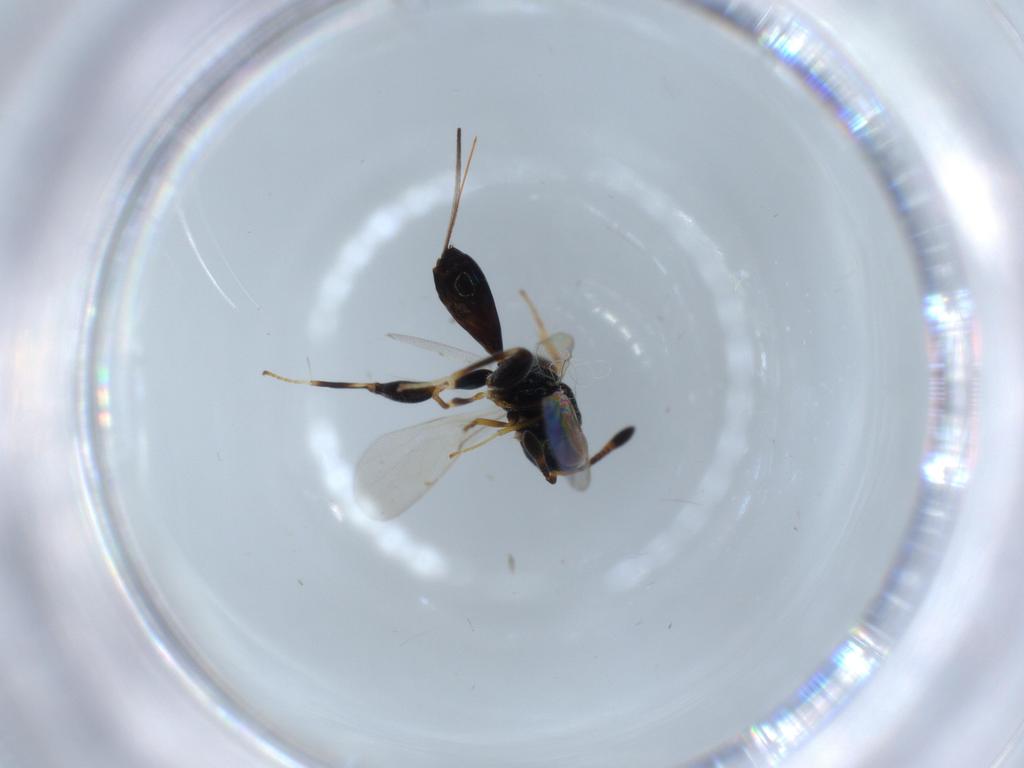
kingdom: Animalia
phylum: Arthropoda
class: Insecta
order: Hymenoptera
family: Torymidae
